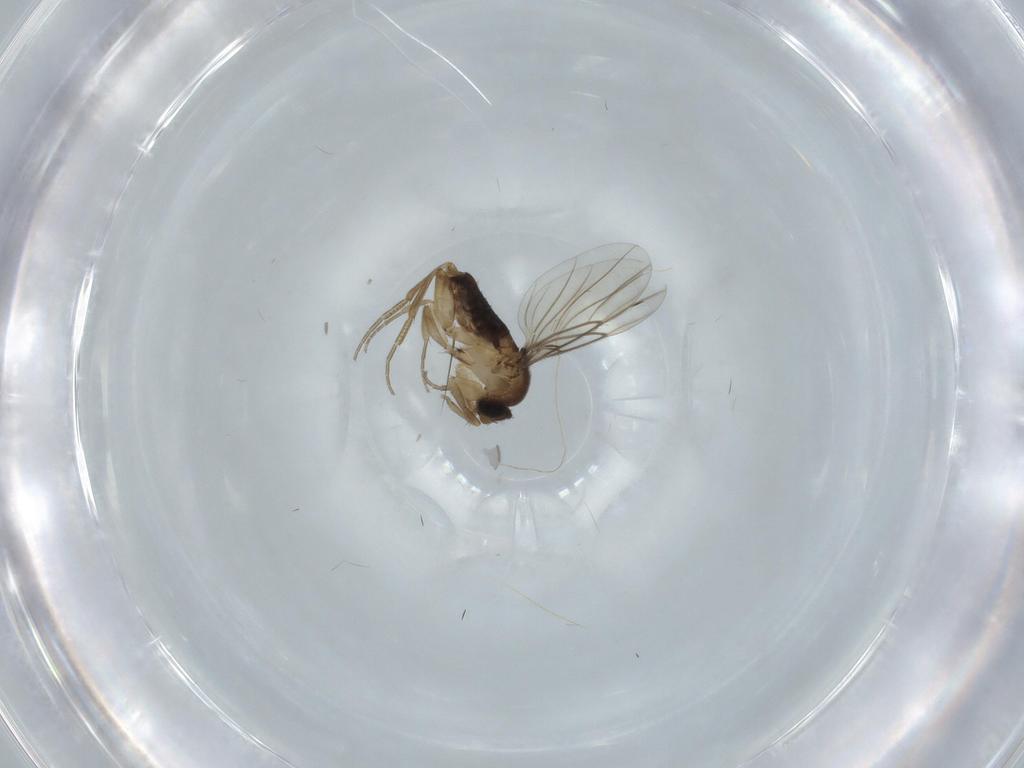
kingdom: Animalia
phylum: Arthropoda
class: Insecta
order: Diptera
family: Phoridae
